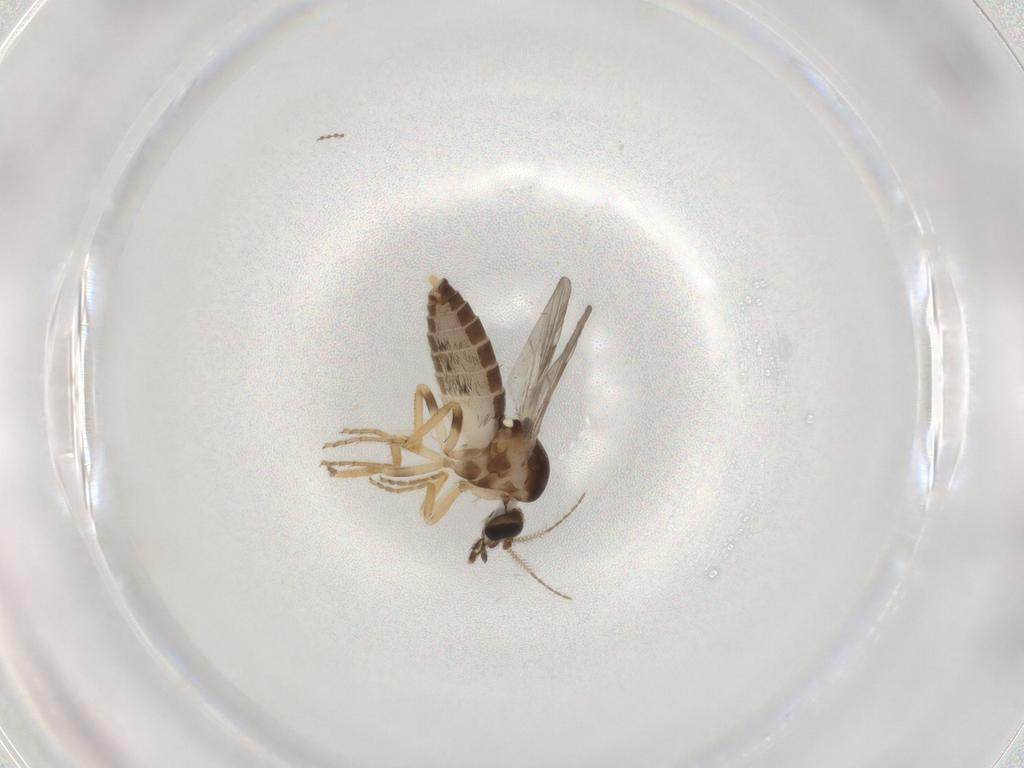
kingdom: Animalia
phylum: Arthropoda
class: Insecta
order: Diptera
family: Ceratopogonidae
